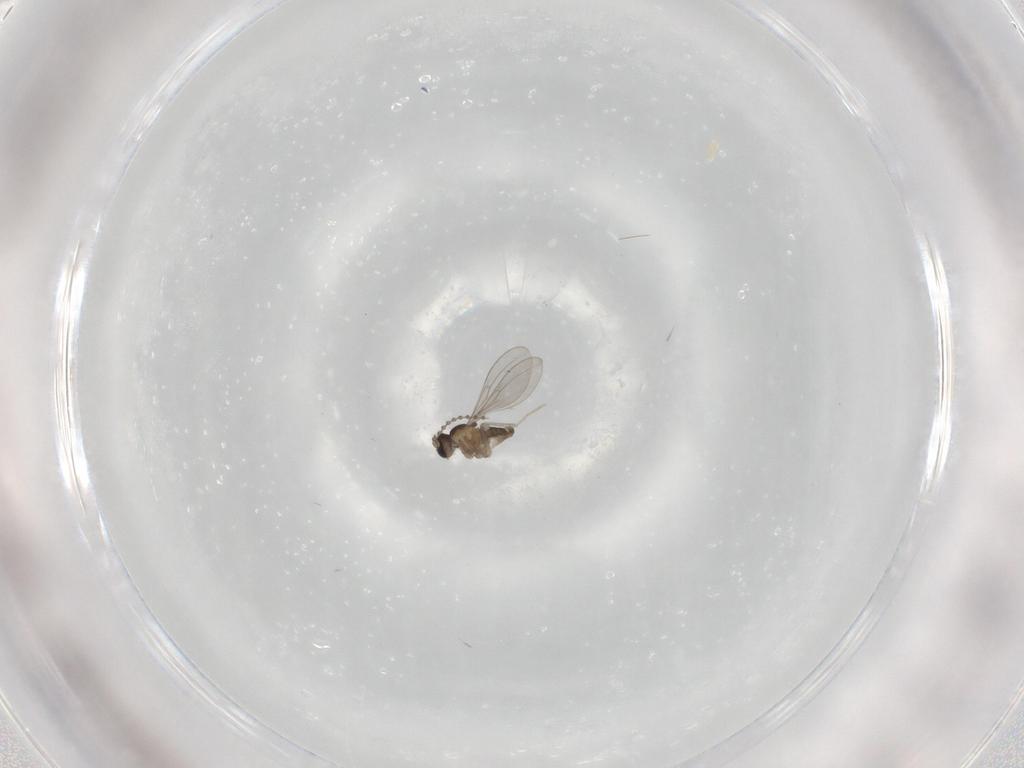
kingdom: Animalia
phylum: Arthropoda
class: Insecta
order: Diptera
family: Cecidomyiidae
